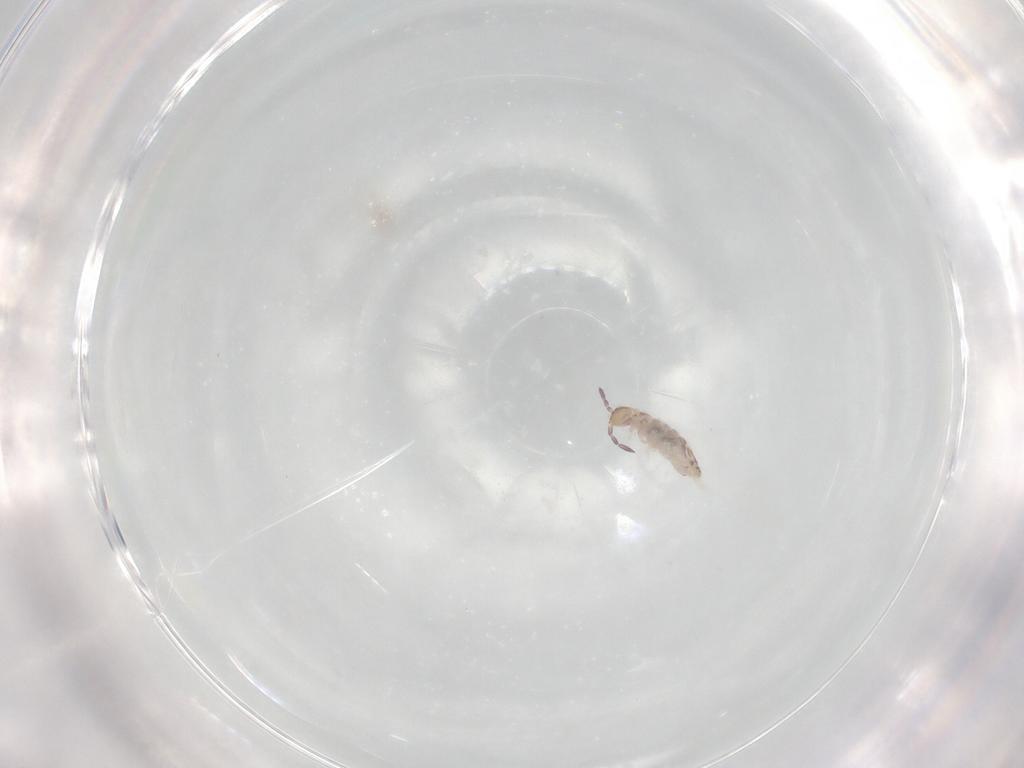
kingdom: Animalia
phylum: Arthropoda
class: Collembola
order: Entomobryomorpha
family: Entomobryidae
